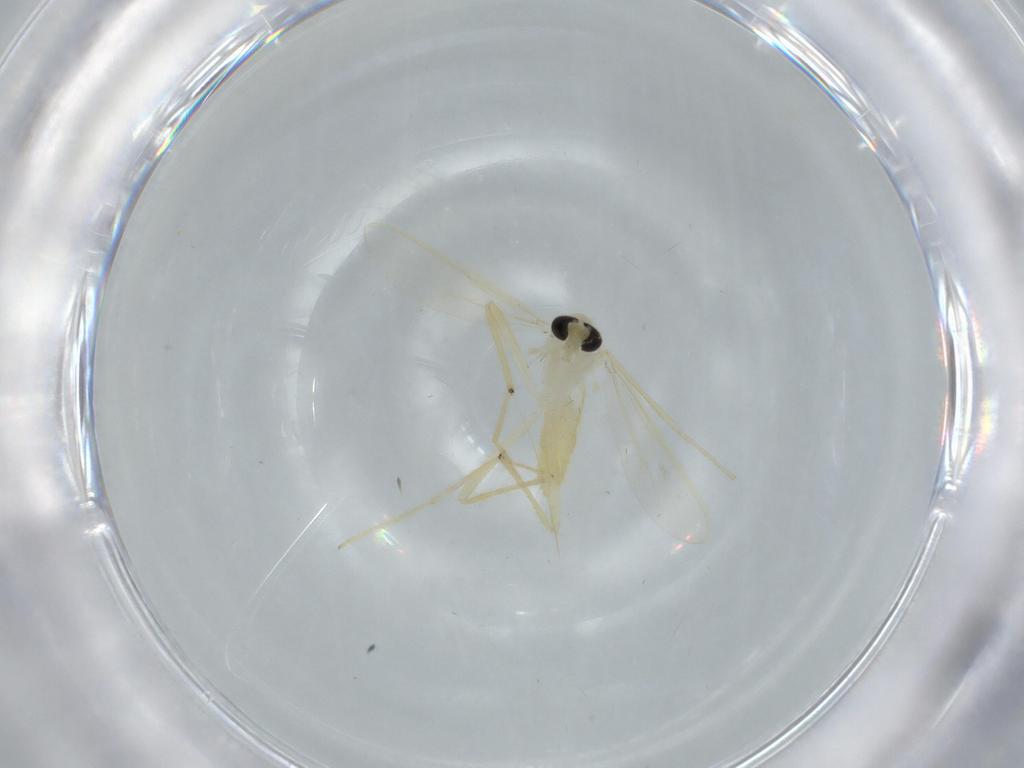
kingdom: Animalia
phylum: Arthropoda
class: Insecta
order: Diptera
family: Chironomidae
